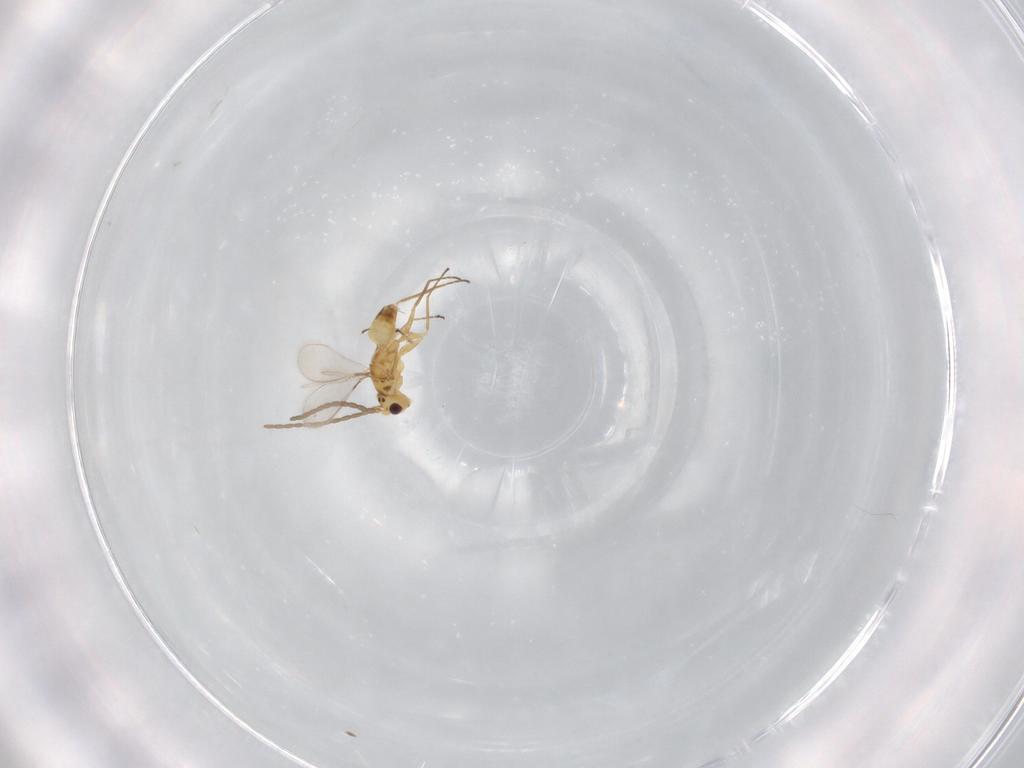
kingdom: Animalia
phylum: Arthropoda
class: Insecta
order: Hymenoptera
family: Mymaridae
